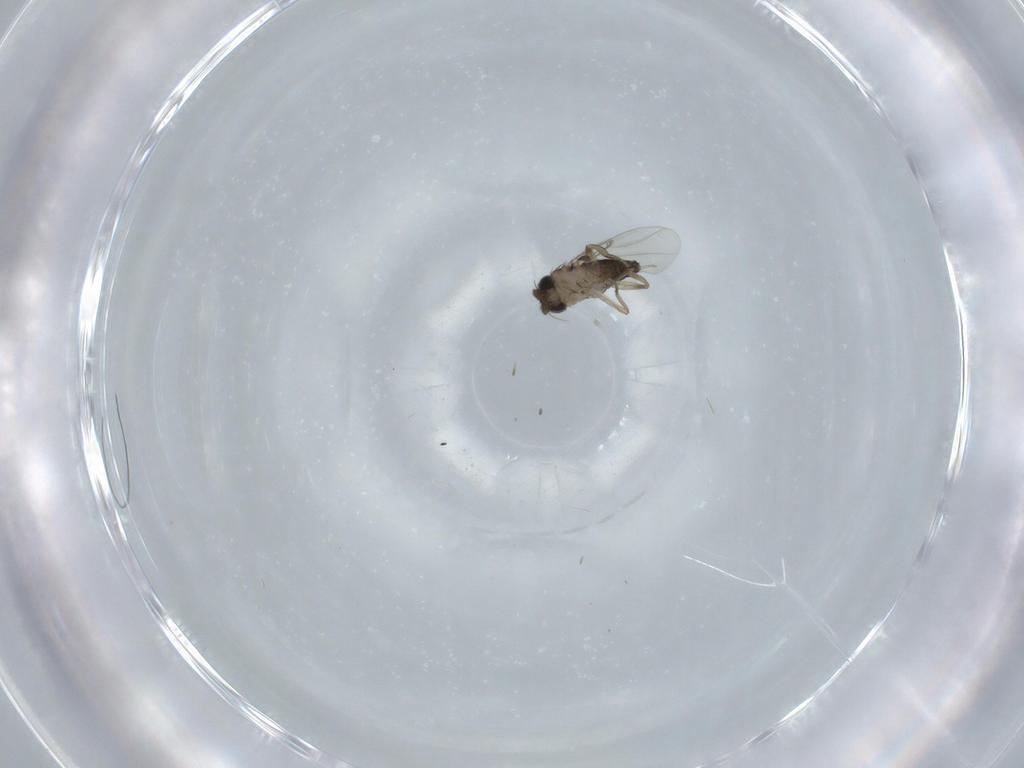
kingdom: Animalia
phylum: Arthropoda
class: Insecta
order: Diptera
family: Phoridae
